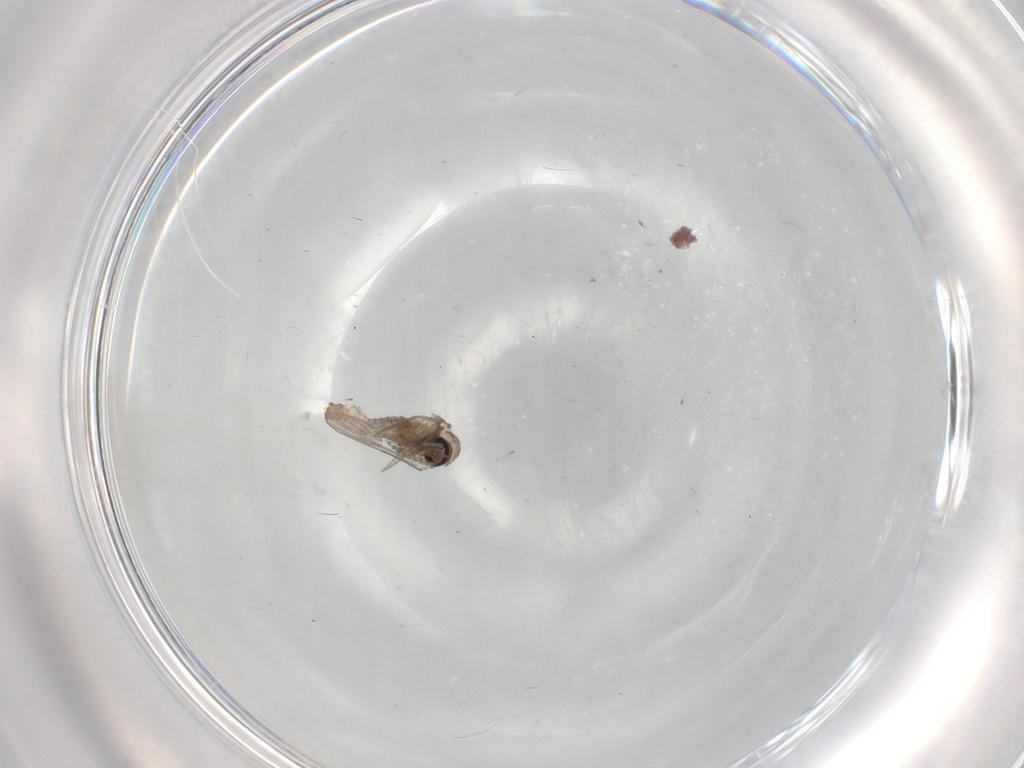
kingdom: Animalia
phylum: Arthropoda
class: Insecta
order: Diptera
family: Psychodidae
